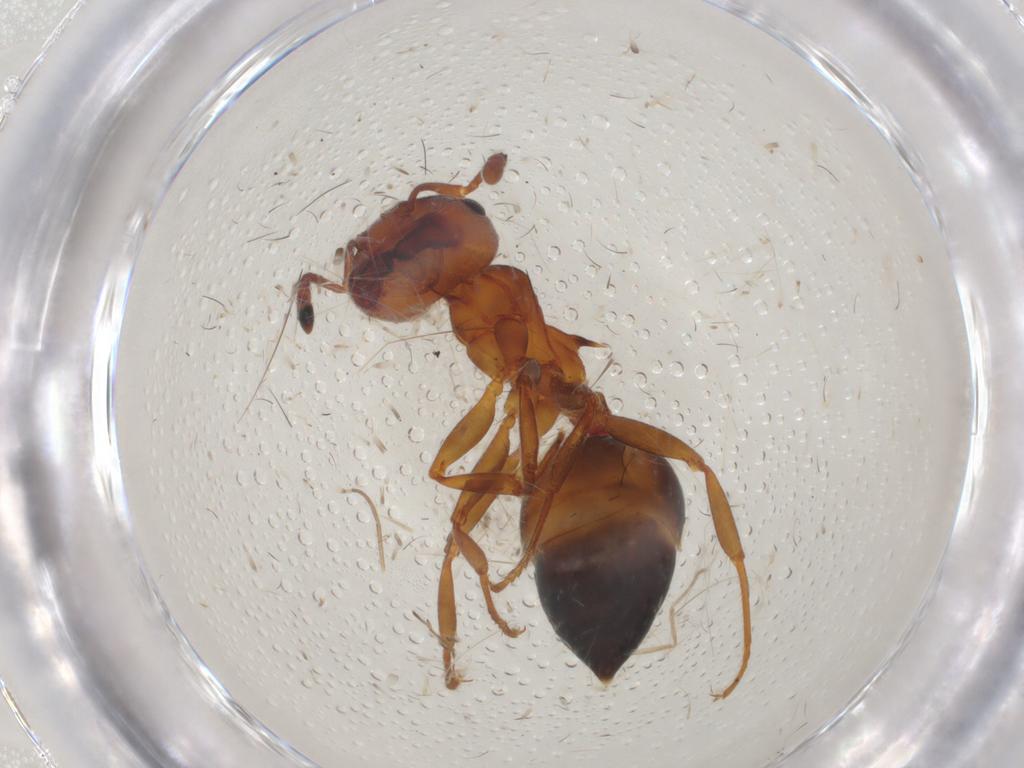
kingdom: Animalia
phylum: Arthropoda
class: Insecta
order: Hymenoptera
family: Formicidae
